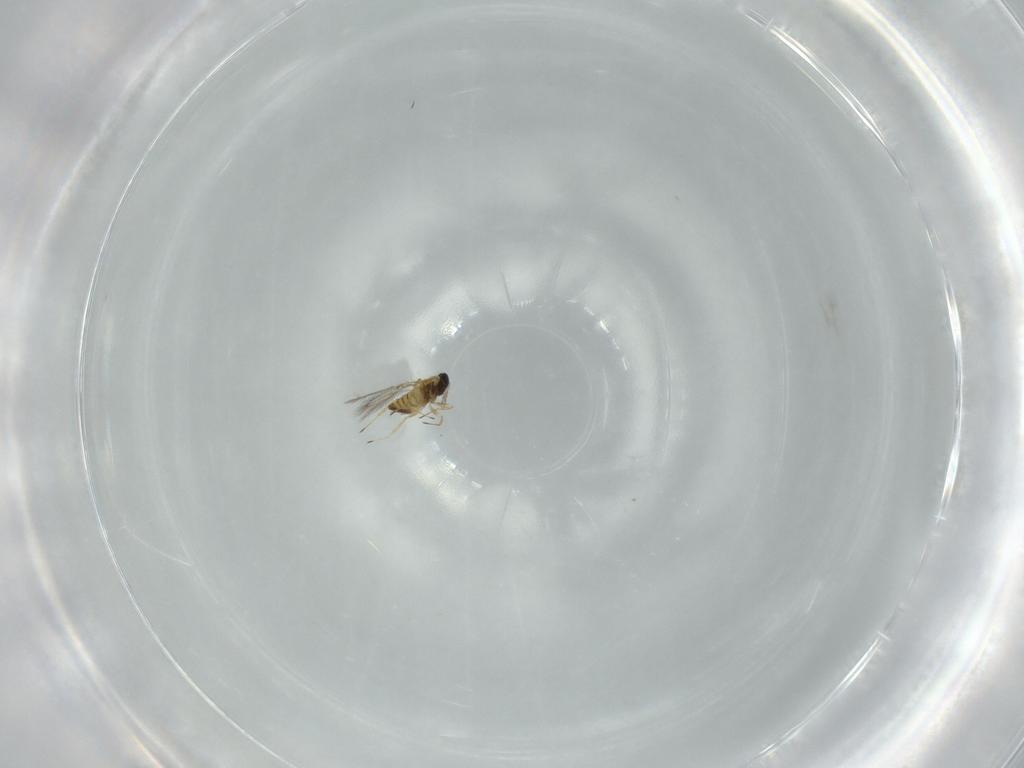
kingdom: Animalia
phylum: Arthropoda
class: Insecta
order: Hymenoptera
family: Trichogrammatidae
